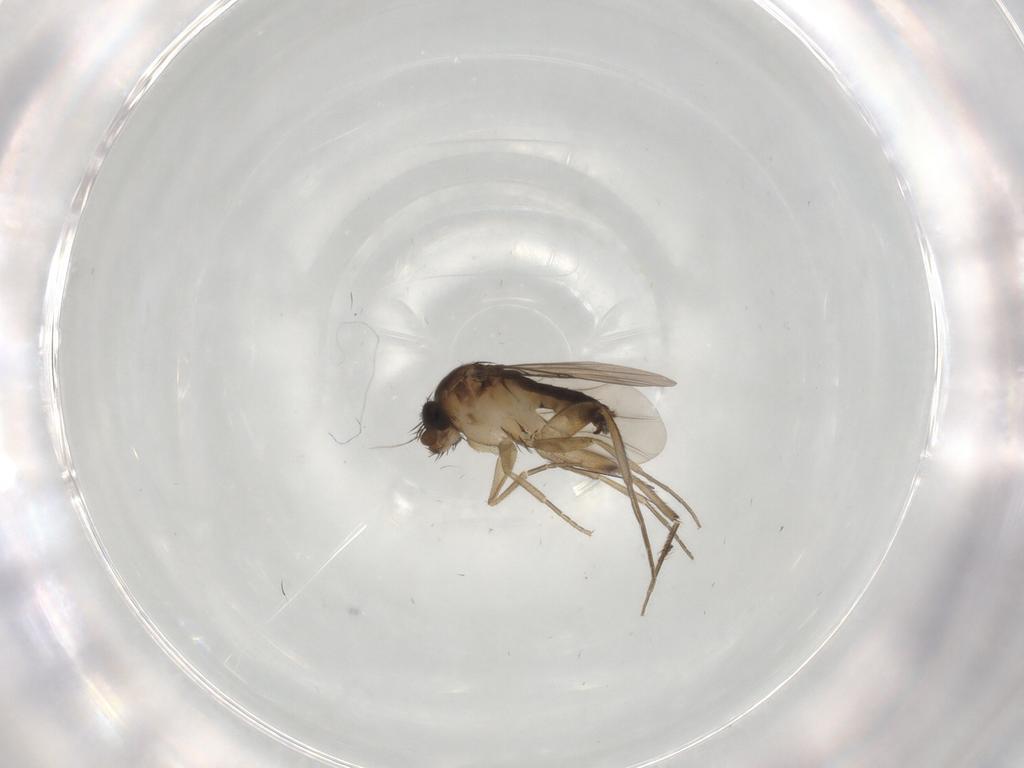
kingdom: Animalia
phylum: Arthropoda
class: Insecta
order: Diptera
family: Phoridae
